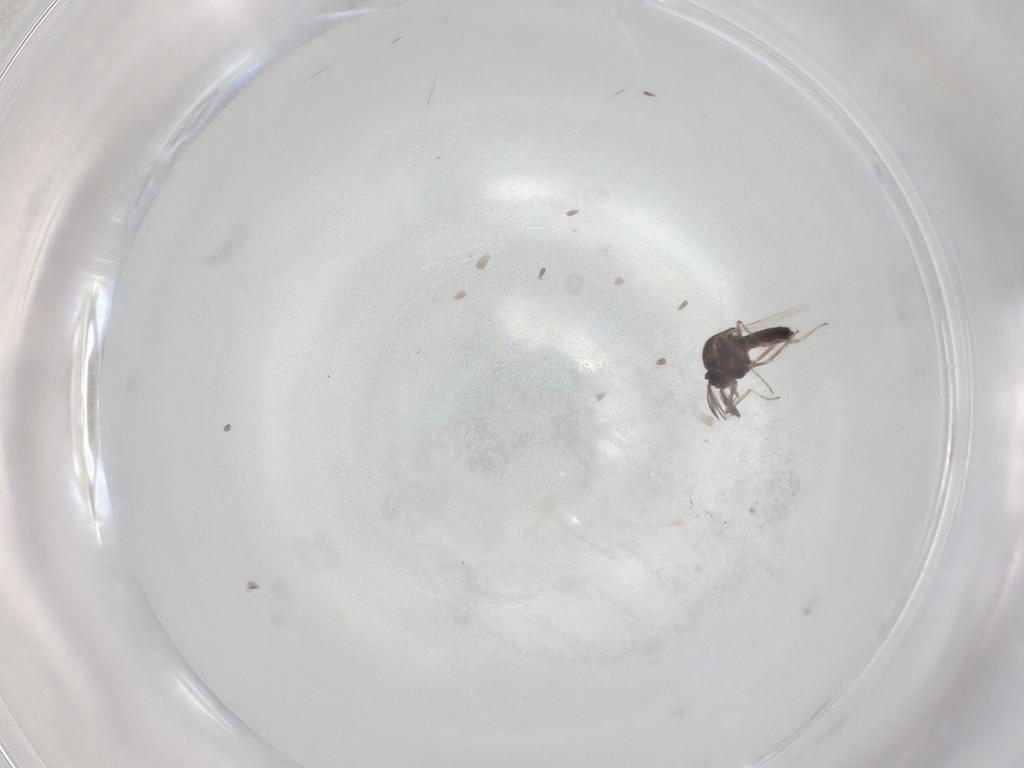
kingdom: Animalia
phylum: Arthropoda
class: Insecta
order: Diptera
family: Ceratopogonidae
